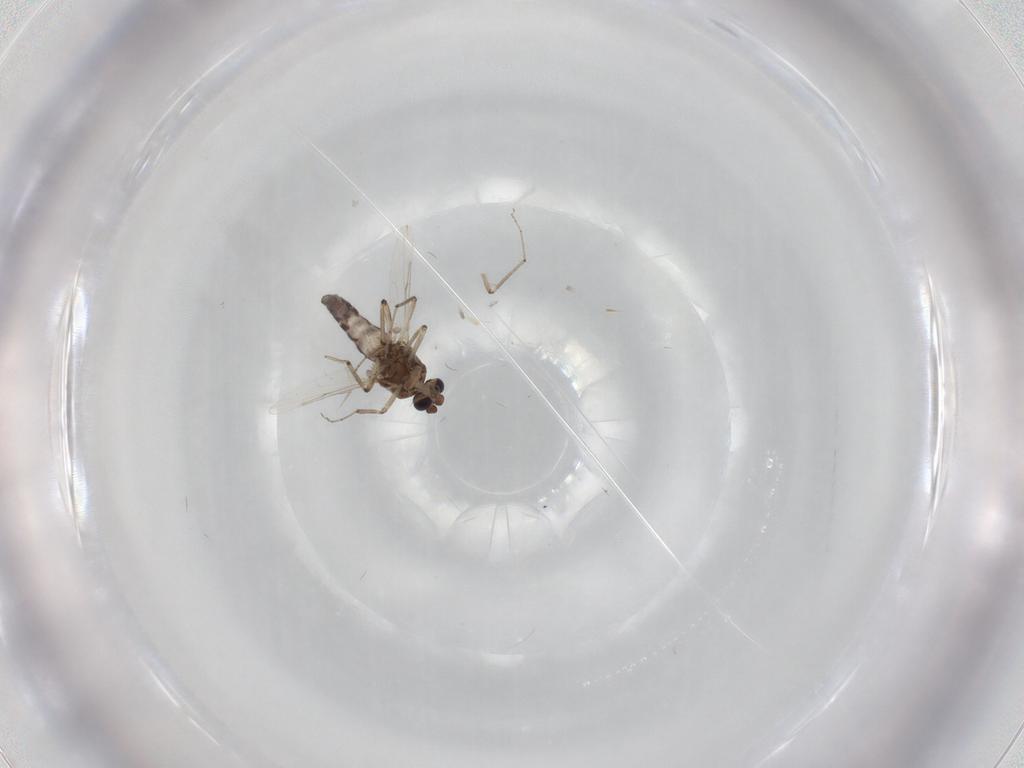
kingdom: Animalia
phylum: Arthropoda
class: Insecta
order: Diptera
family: Ceratopogonidae
